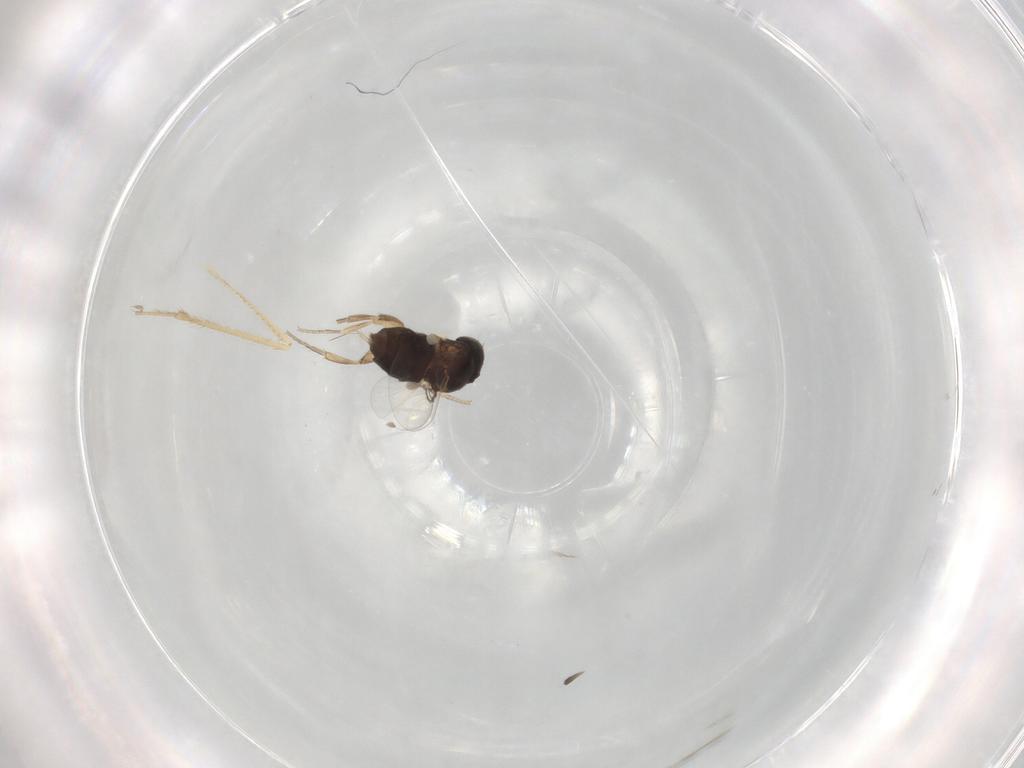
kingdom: Animalia
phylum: Arthropoda
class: Insecta
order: Diptera
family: Phoridae
